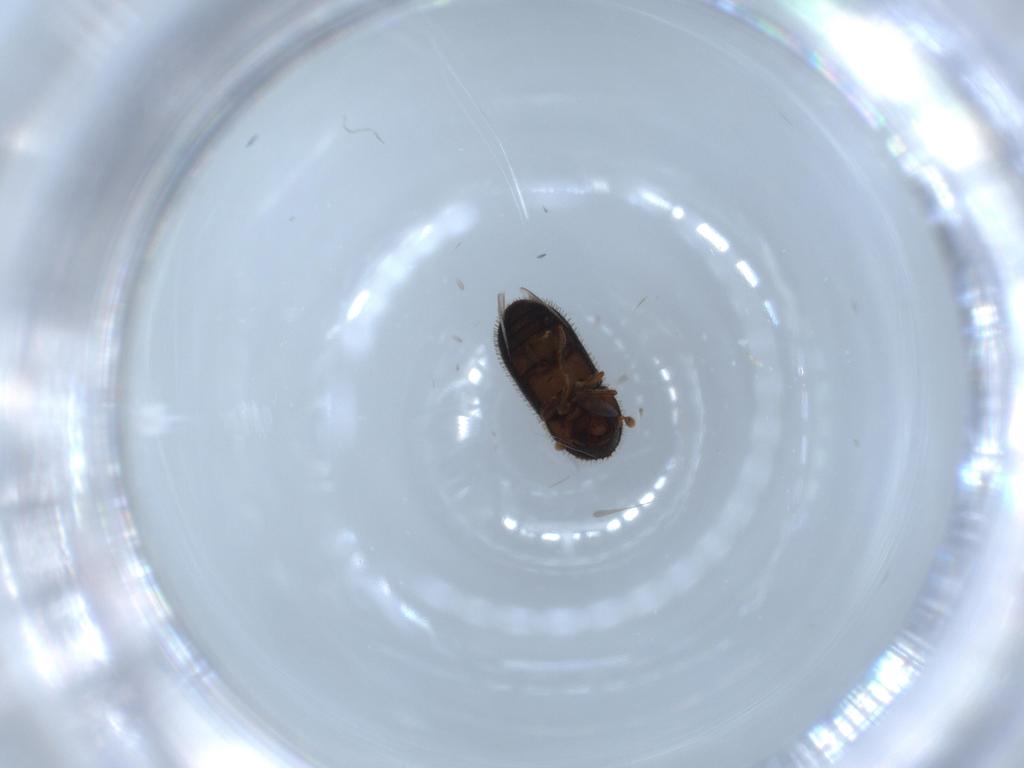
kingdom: Animalia
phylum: Arthropoda
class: Insecta
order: Coleoptera
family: Curculionidae
